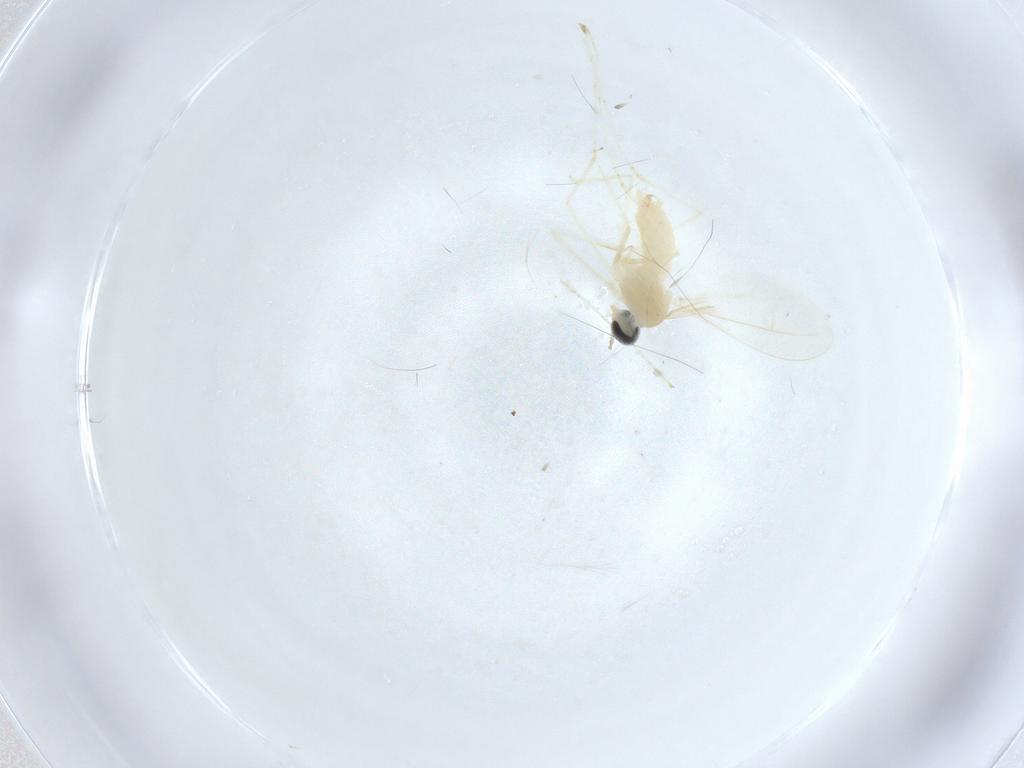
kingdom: Animalia
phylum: Arthropoda
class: Insecta
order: Diptera
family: Cecidomyiidae
